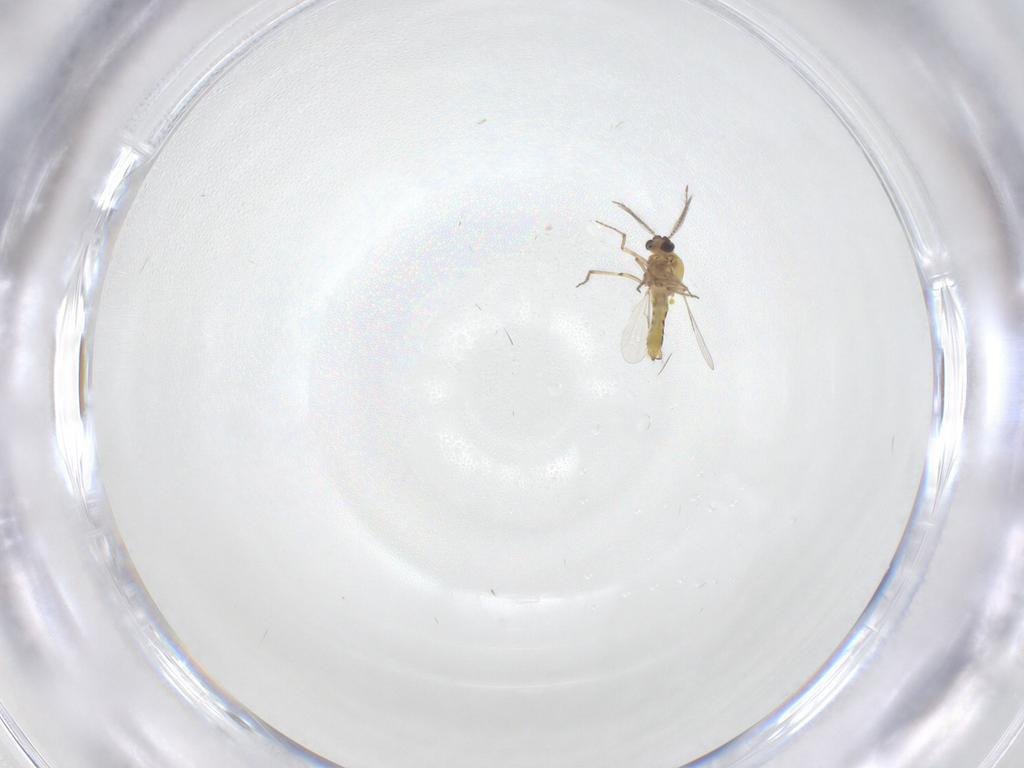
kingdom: Animalia
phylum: Arthropoda
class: Insecta
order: Diptera
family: Ceratopogonidae
